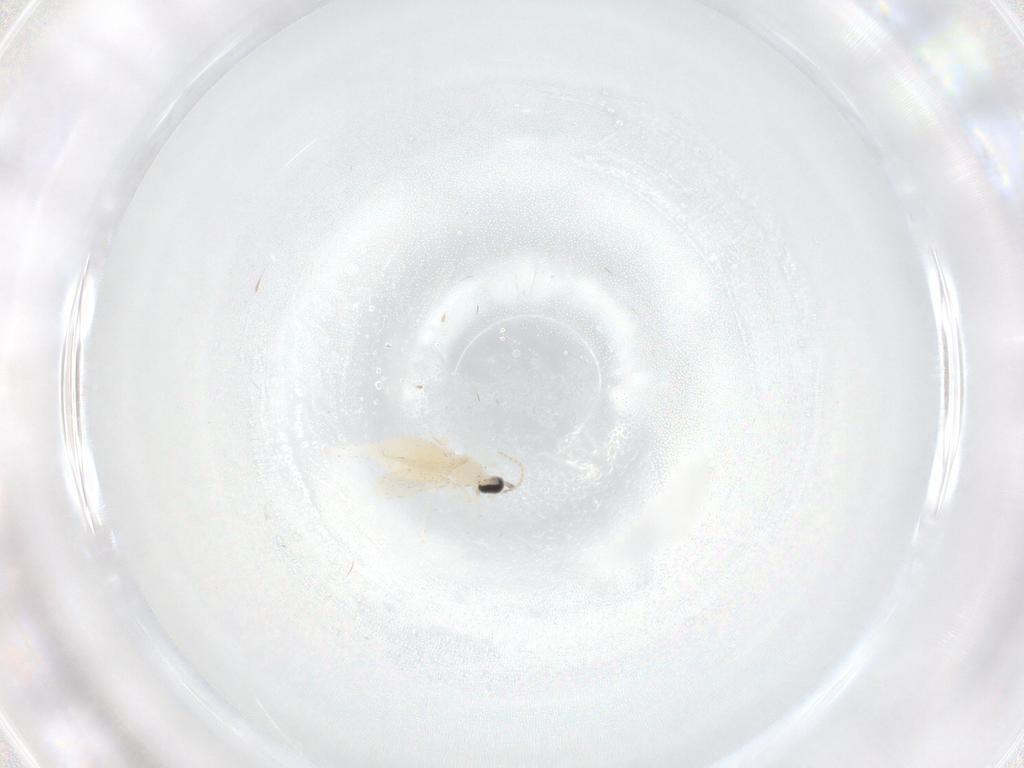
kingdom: Animalia
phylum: Arthropoda
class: Insecta
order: Diptera
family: Cecidomyiidae
